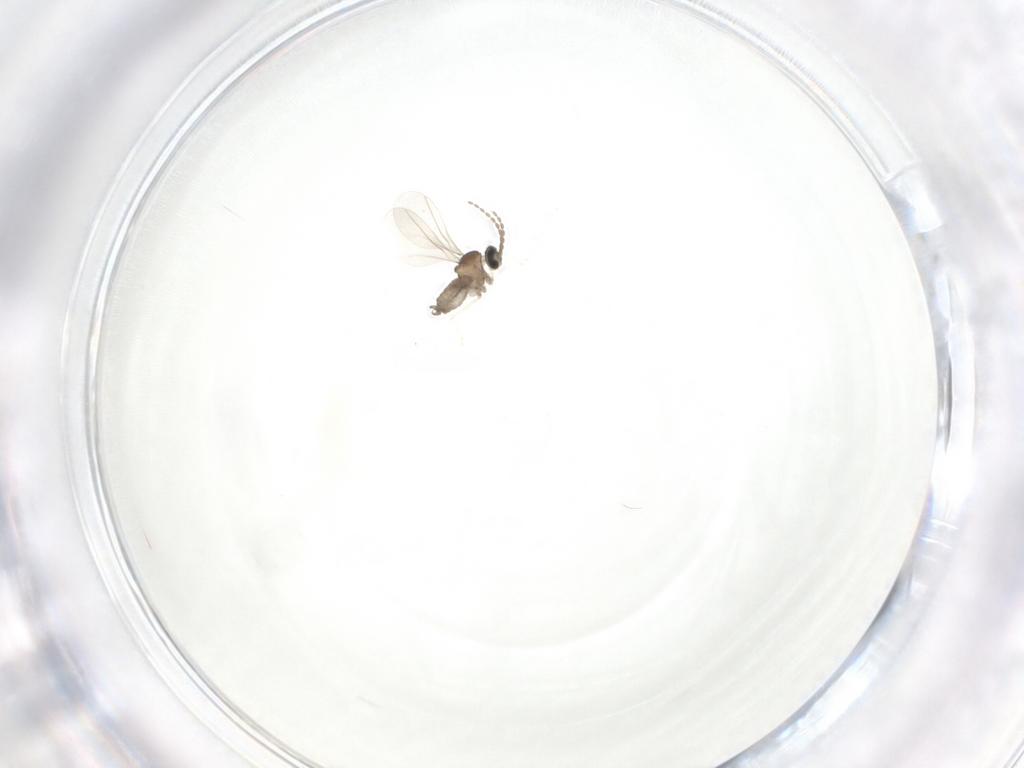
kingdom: Animalia
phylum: Arthropoda
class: Insecta
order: Diptera
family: Cecidomyiidae
